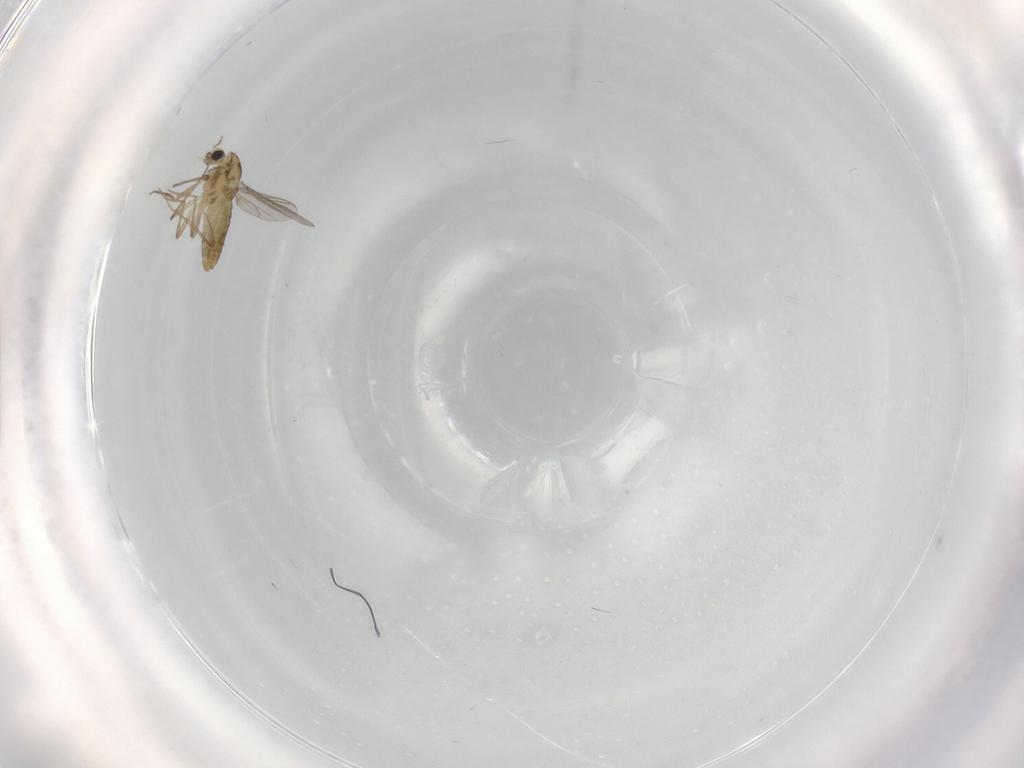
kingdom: Animalia
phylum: Arthropoda
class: Insecta
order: Diptera
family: Chironomidae
